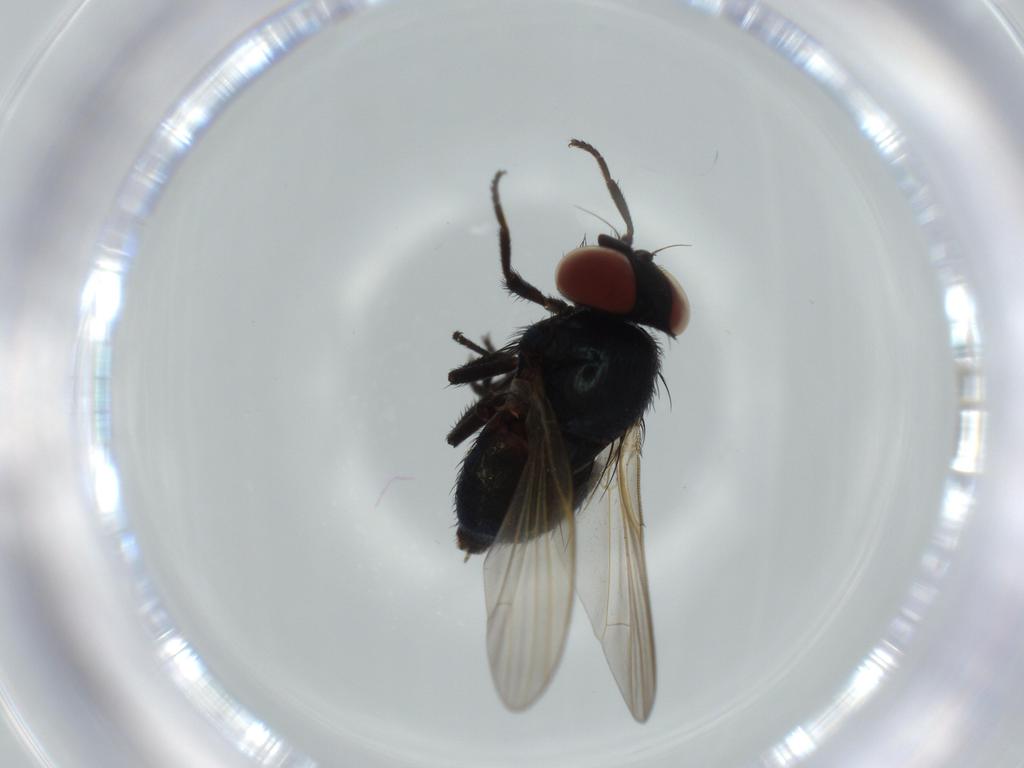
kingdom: Animalia
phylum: Arthropoda
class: Insecta
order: Diptera
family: Lonchaeidae
